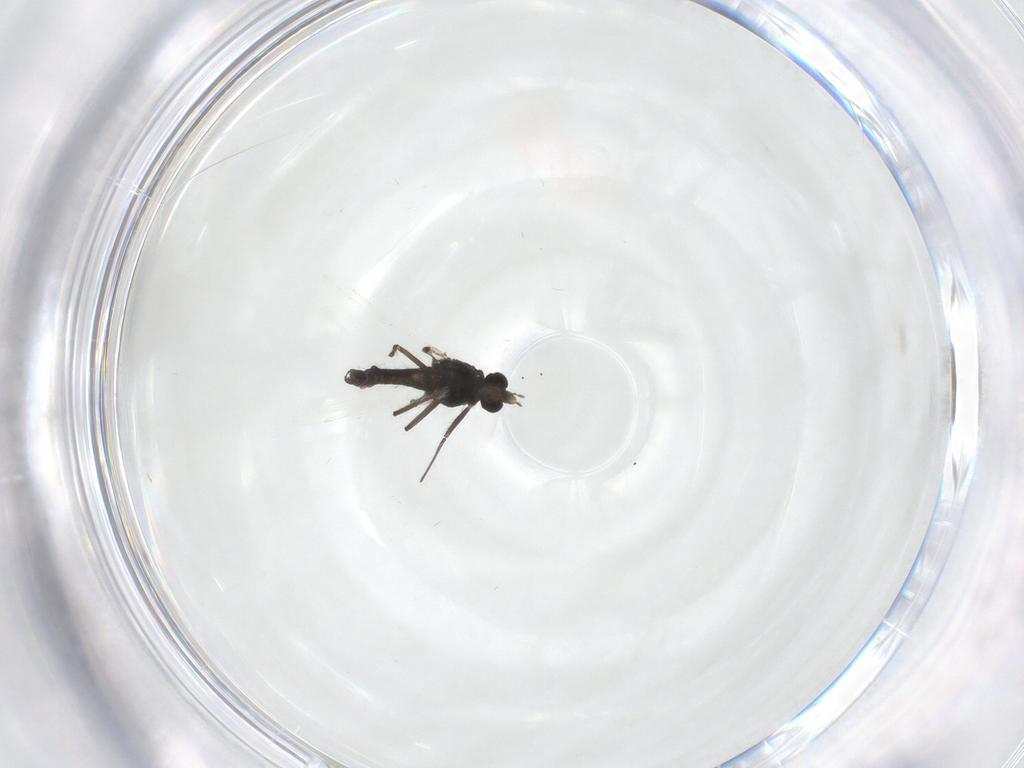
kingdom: Animalia
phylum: Arthropoda
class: Insecta
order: Diptera
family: Chironomidae
